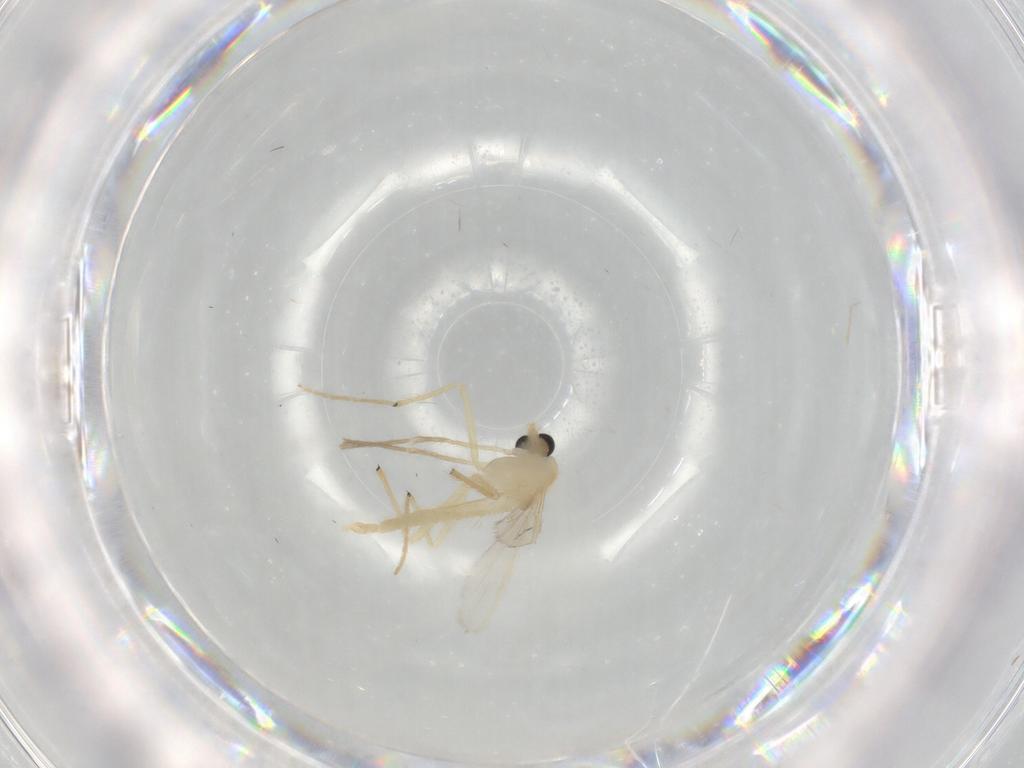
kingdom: Animalia
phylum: Arthropoda
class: Insecta
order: Diptera
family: Chironomidae
